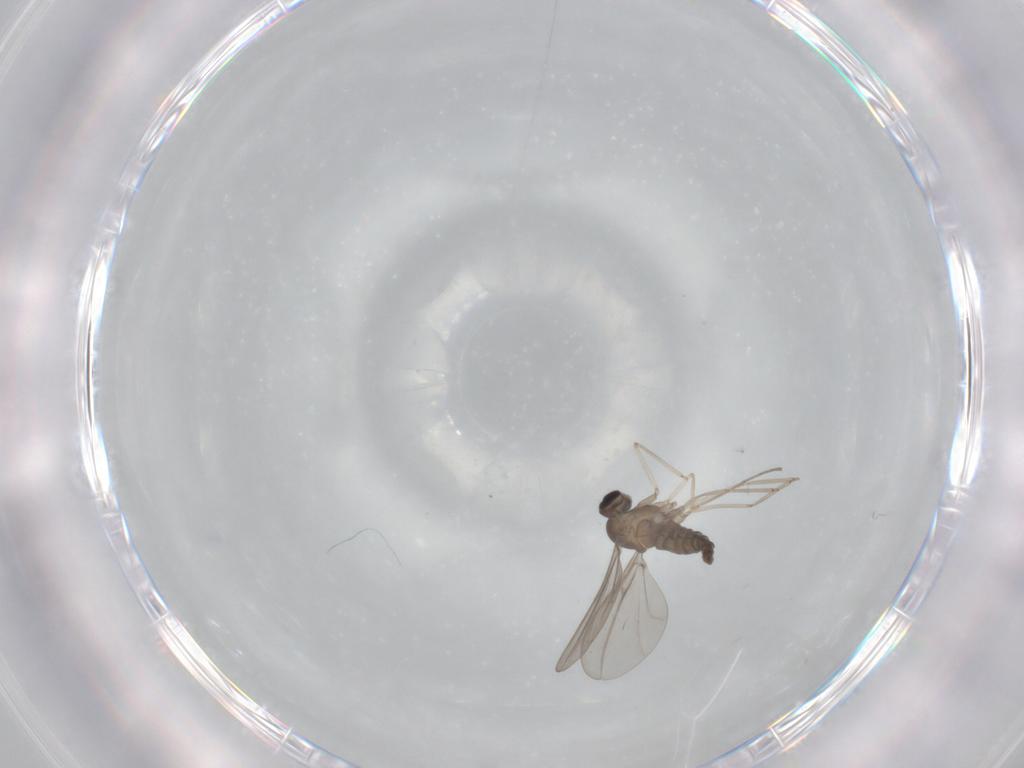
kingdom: Animalia
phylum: Arthropoda
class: Insecta
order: Diptera
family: Cecidomyiidae
